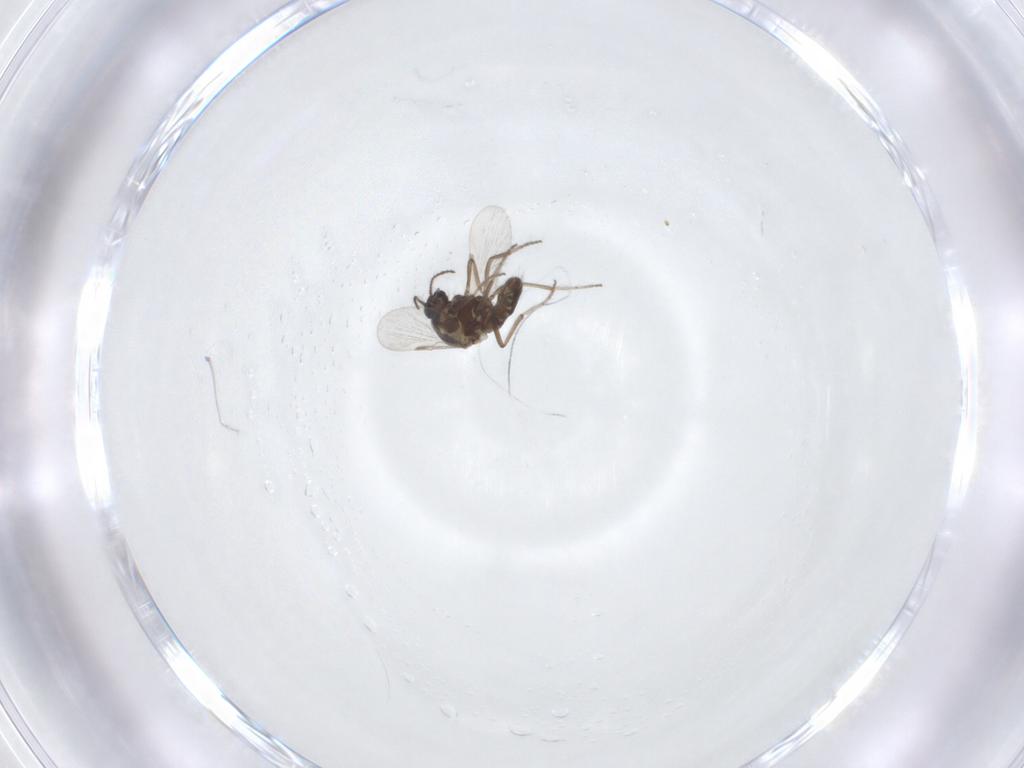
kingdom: Animalia
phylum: Arthropoda
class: Insecta
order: Diptera
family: Ceratopogonidae
